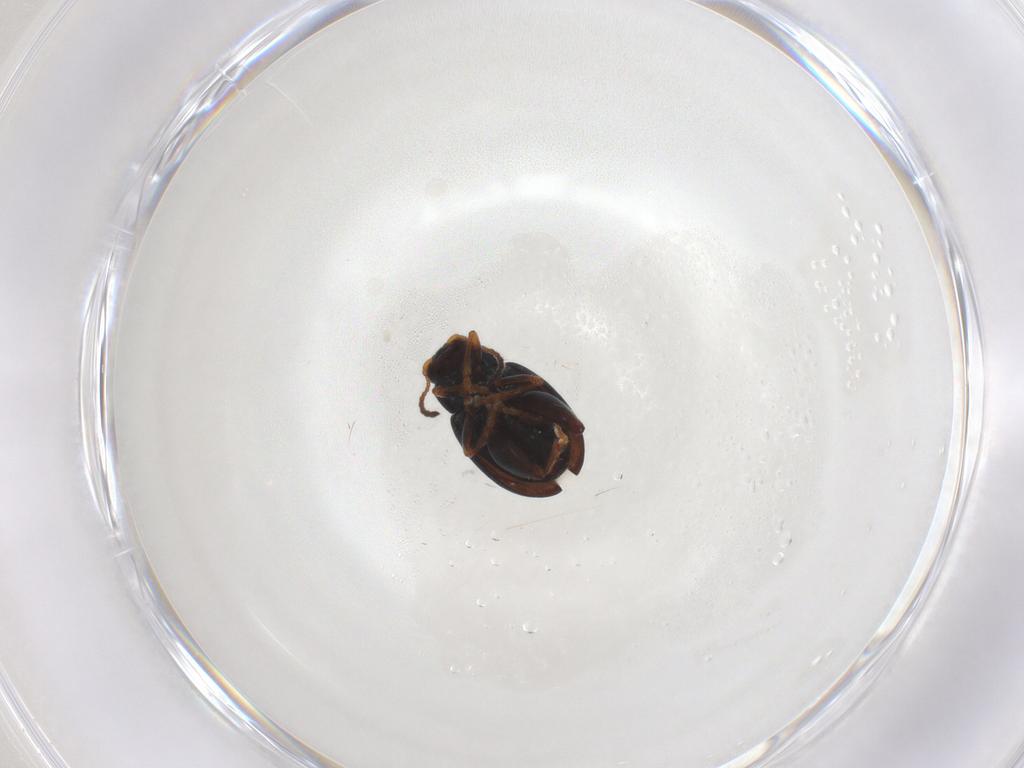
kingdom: Animalia
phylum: Arthropoda
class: Insecta
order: Coleoptera
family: Chrysomelidae
